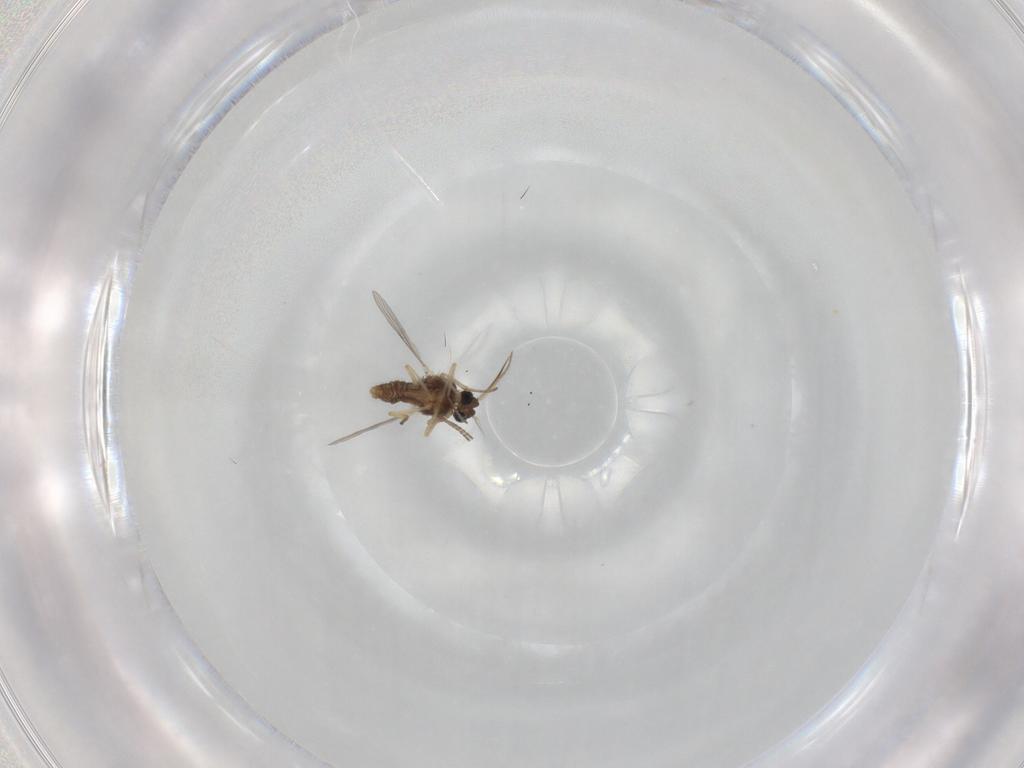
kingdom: Animalia
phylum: Arthropoda
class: Insecta
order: Diptera
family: Ceratopogonidae
